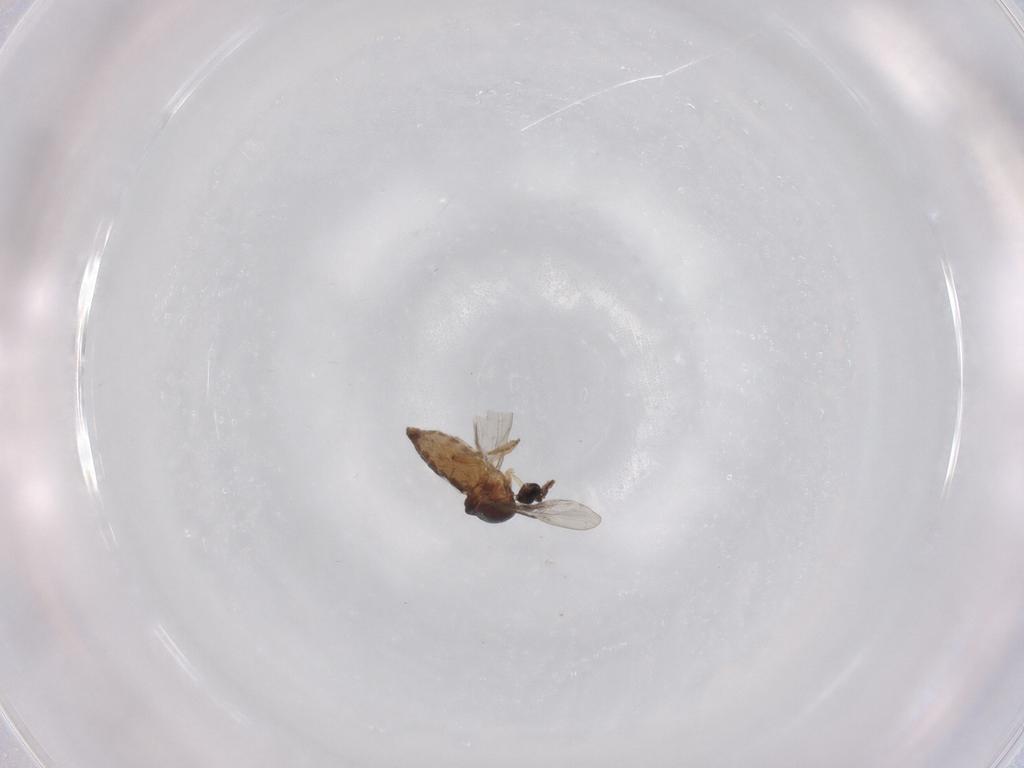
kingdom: Animalia
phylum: Arthropoda
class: Insecta
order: Diptera
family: Cecidomyiidae
